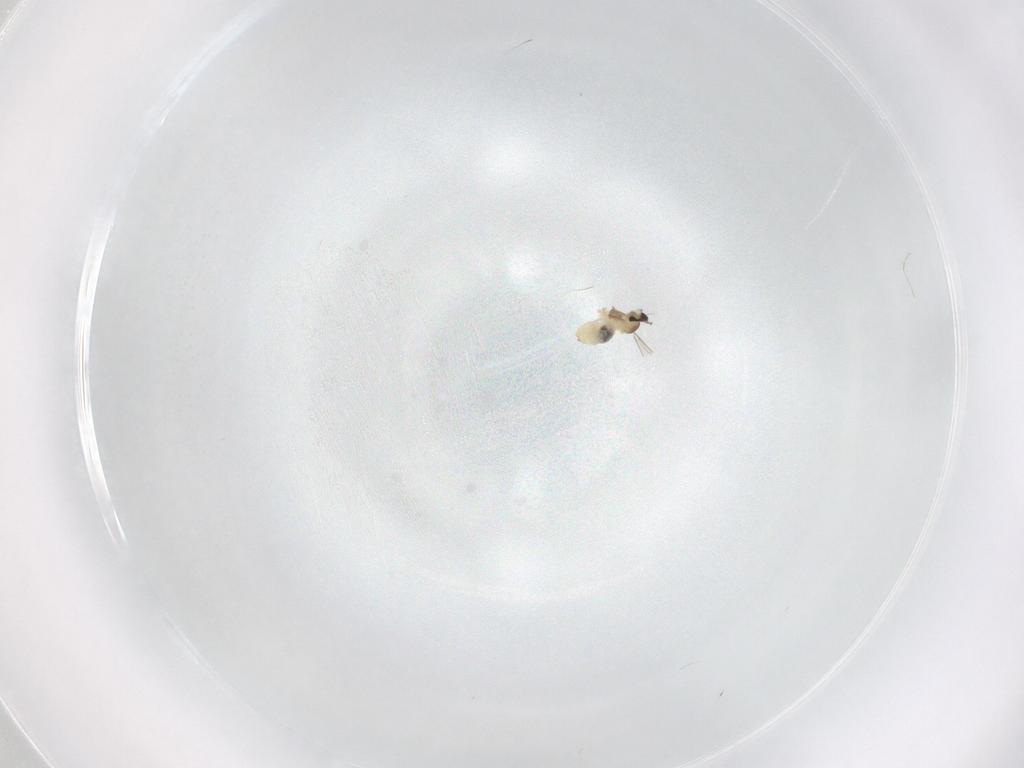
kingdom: Animalia
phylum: Arthropoda
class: Insecta
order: Diptera
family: Cecidomyiidae
